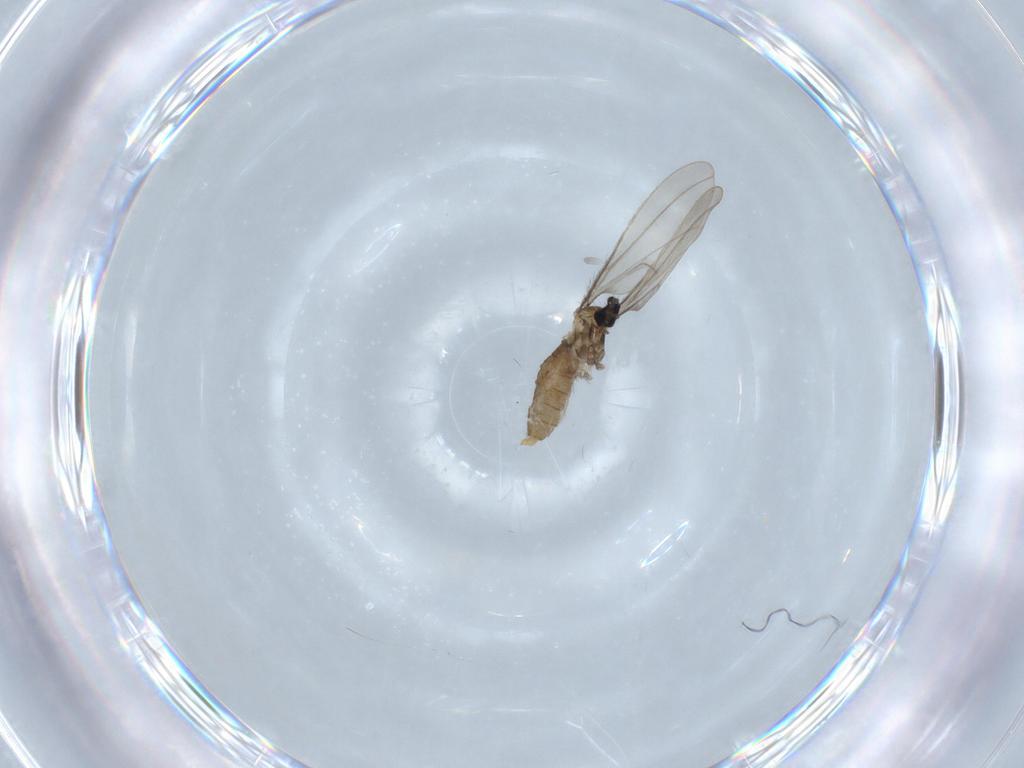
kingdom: Animalia
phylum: Arthropoda
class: Insecta
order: Diptera
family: Cecidomyiidae
